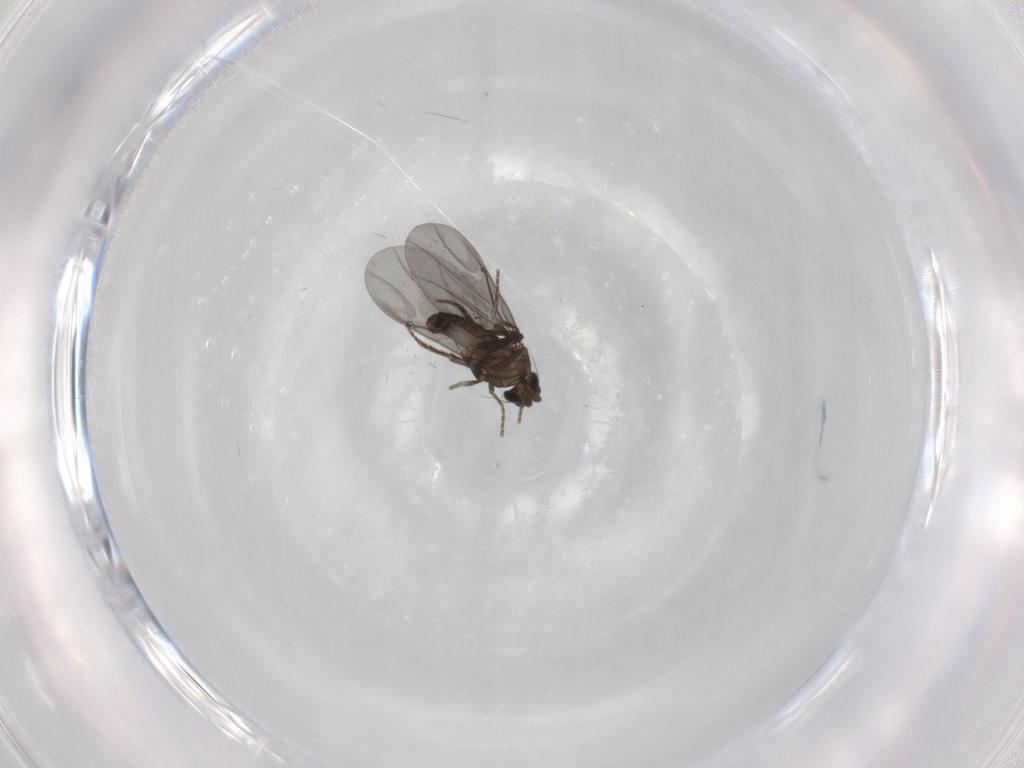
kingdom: Animalia
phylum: Arthropoda
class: Insecta
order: Diptera
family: Phoridae
